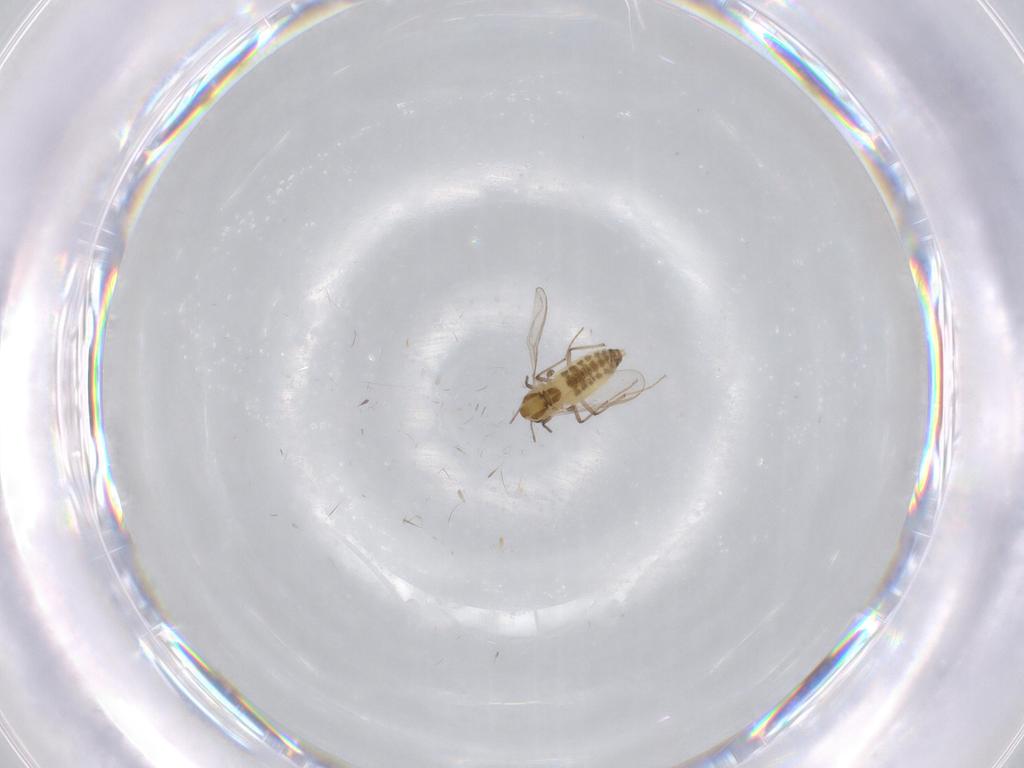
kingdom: Animalia
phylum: Arthropoda
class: Insecta
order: Diptera
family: Chironomidae
